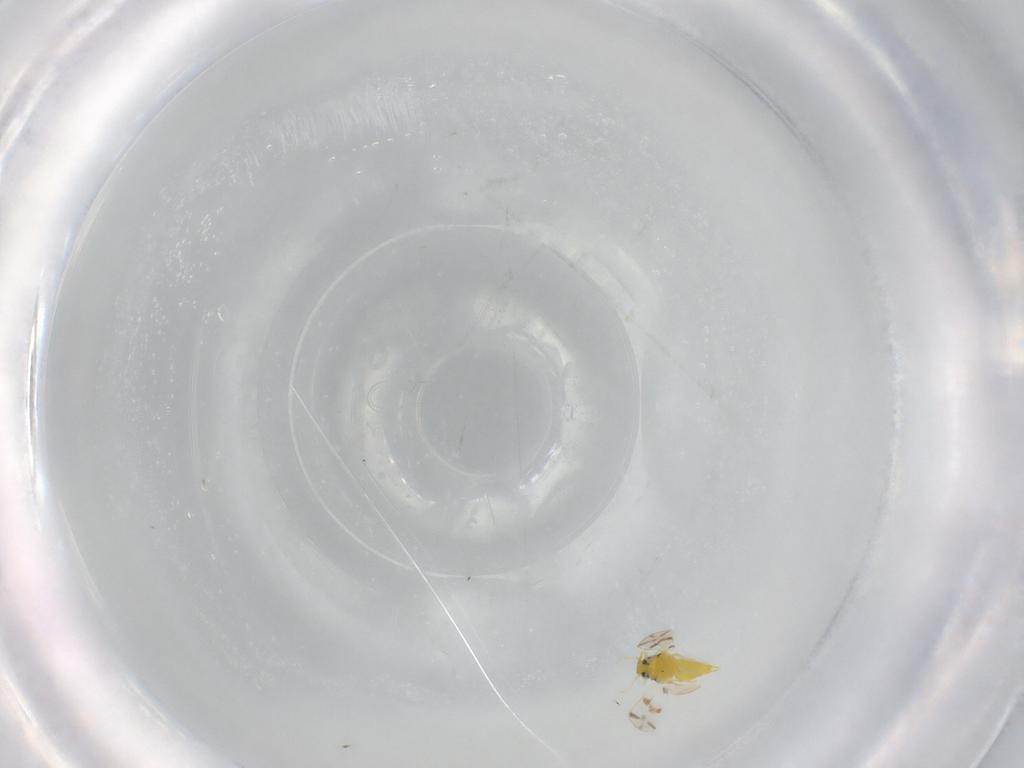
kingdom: Animalia
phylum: Arthropoda
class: Insecta
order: Hemiptera
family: Aleyrodidae
